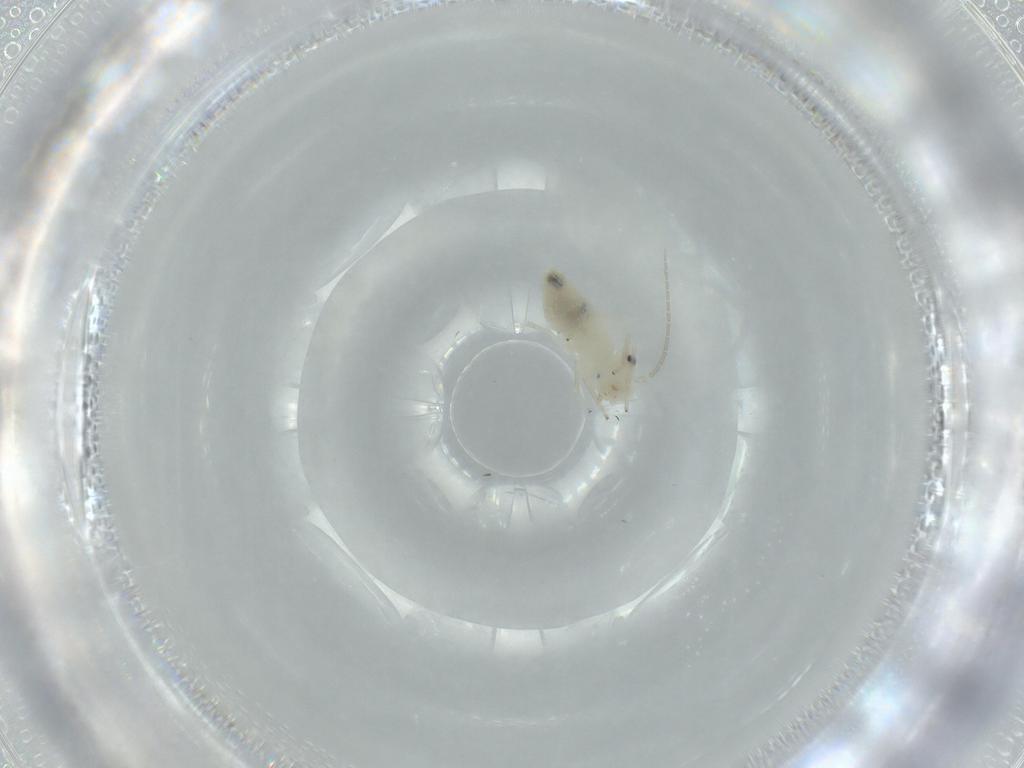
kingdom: Animalia
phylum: Arthropoda
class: Insecta
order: Psocodea
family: Caeciliusidae
